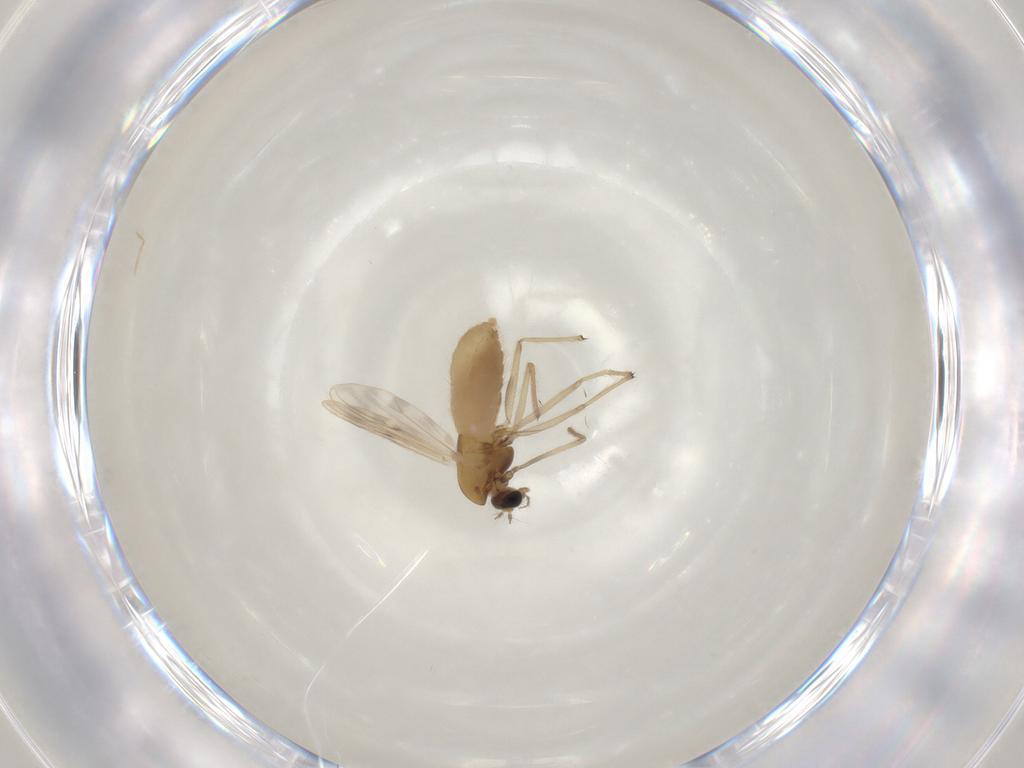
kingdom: Animalia
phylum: Arthropoda
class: Insecta
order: Diptera
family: Chironomidae
